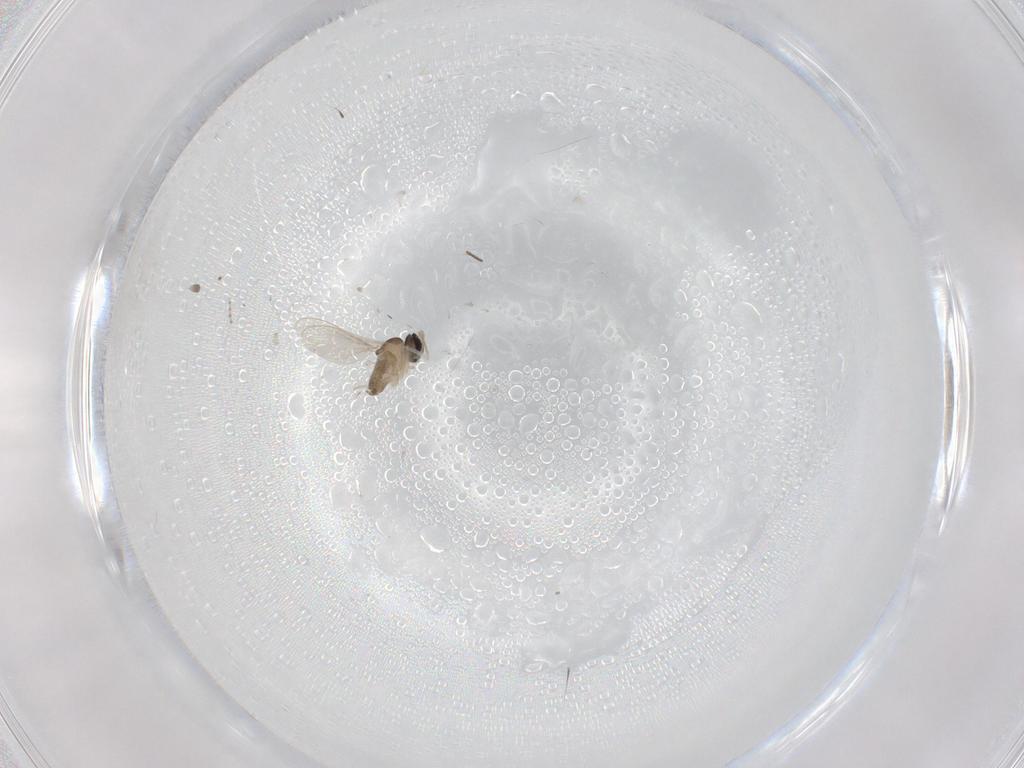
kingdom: Animalia
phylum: Arthropoda
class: Insecta
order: Diptera
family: Cecidomyiidae
